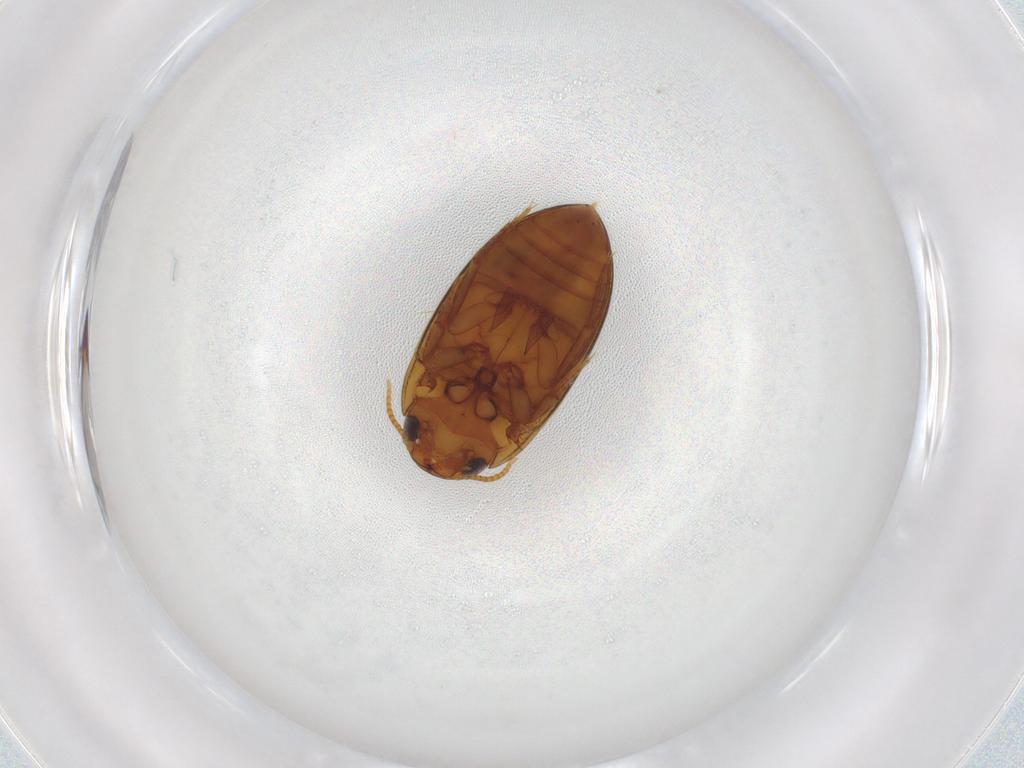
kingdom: Animalia
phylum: Arthropoda
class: Insecta
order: Coleoptera
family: Noteridae
